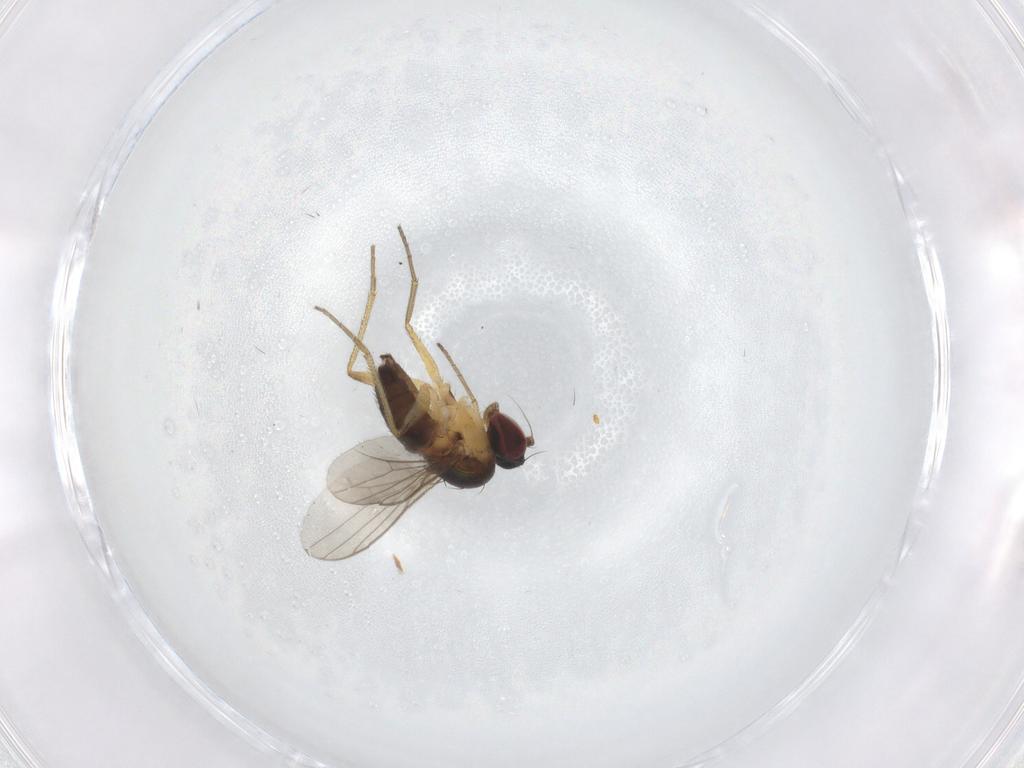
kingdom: Animalia
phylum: Arthropoda
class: Insecta
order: Diptera
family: Dolichopodidae
